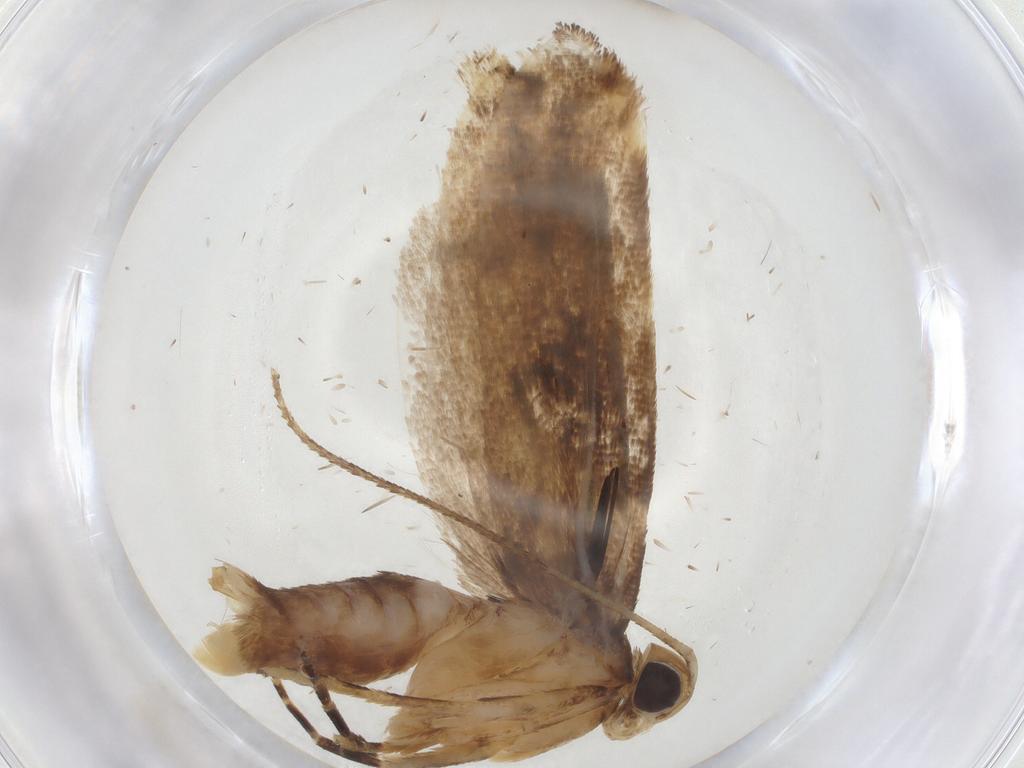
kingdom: Animalia
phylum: Arthropoda
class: Insecta
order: Lepidoptera
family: Gelechiidae
